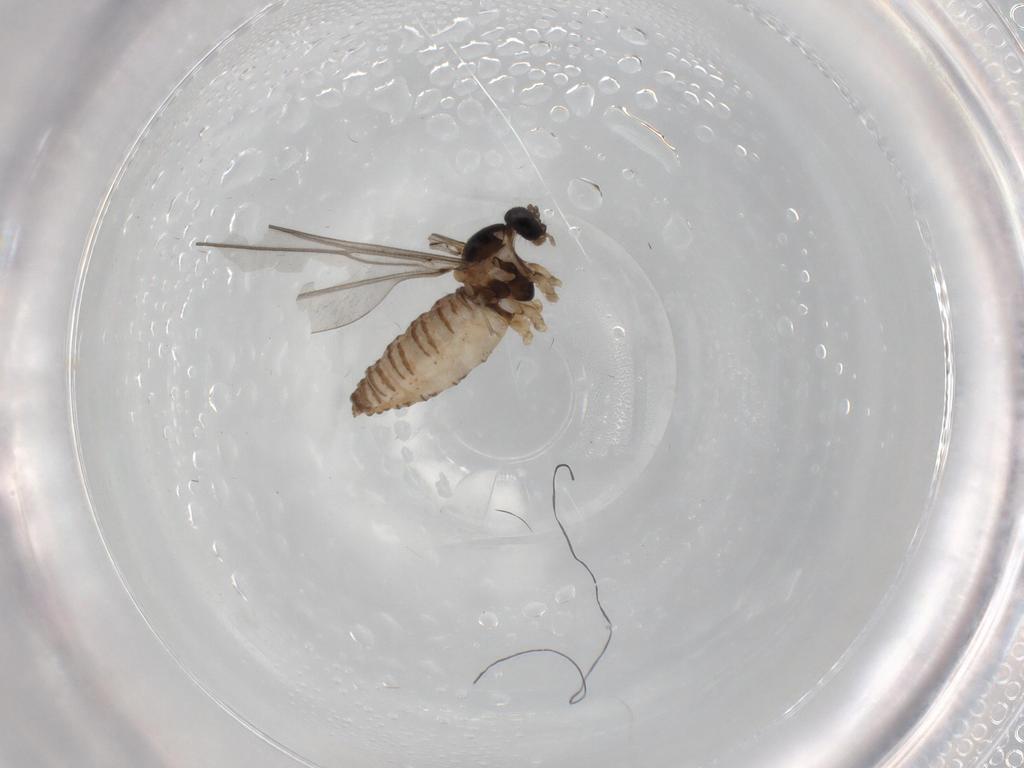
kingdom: Animalia
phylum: Arthropoda
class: Insecta
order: Diptera
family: Cecidomyiidae
